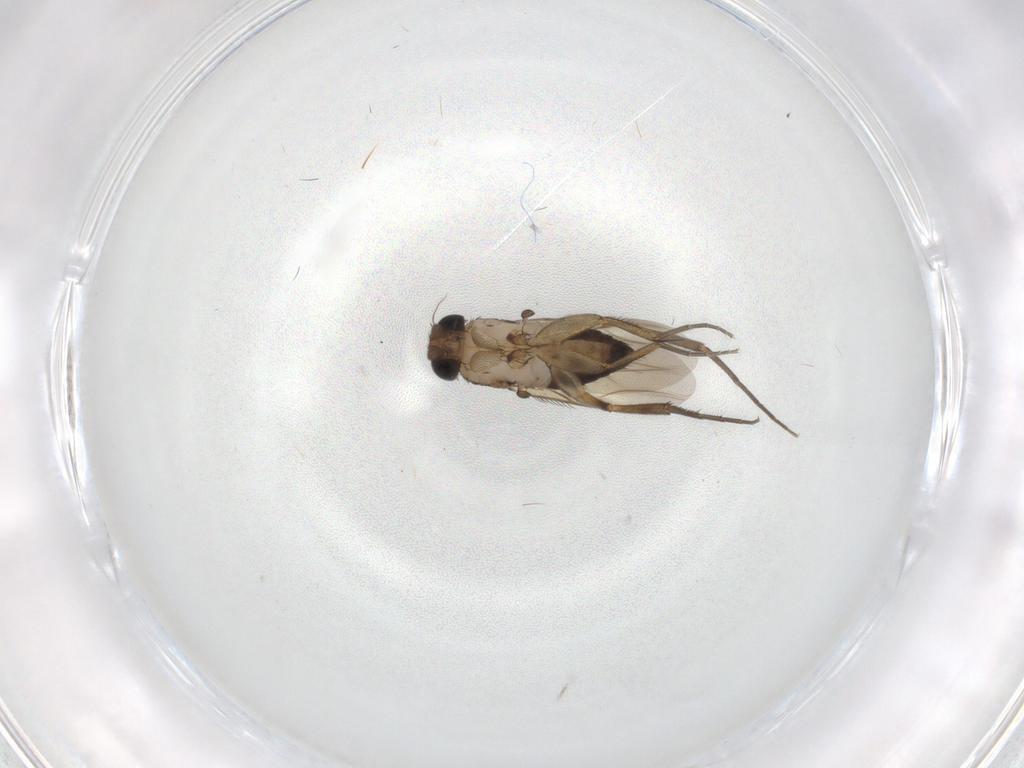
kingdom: Animalia
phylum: Arthropoda
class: Insecta
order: Diptera
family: Phoridae
